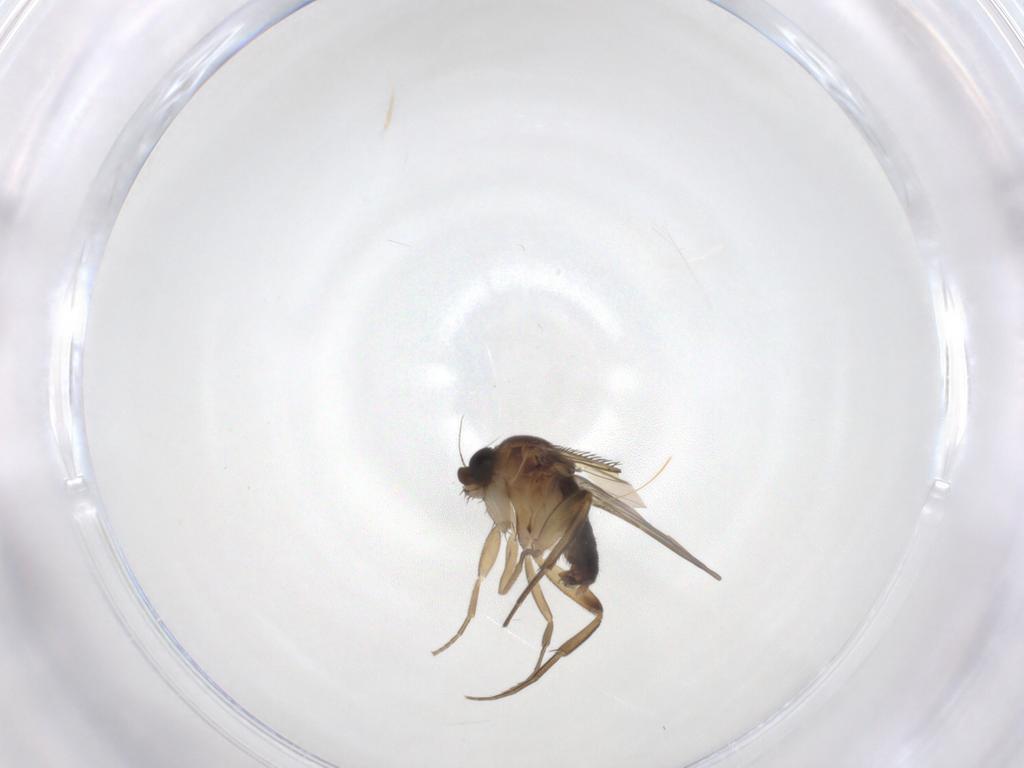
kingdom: Animalia
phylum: Arthropoda
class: Insecta
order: Diptera
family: Phoridae
